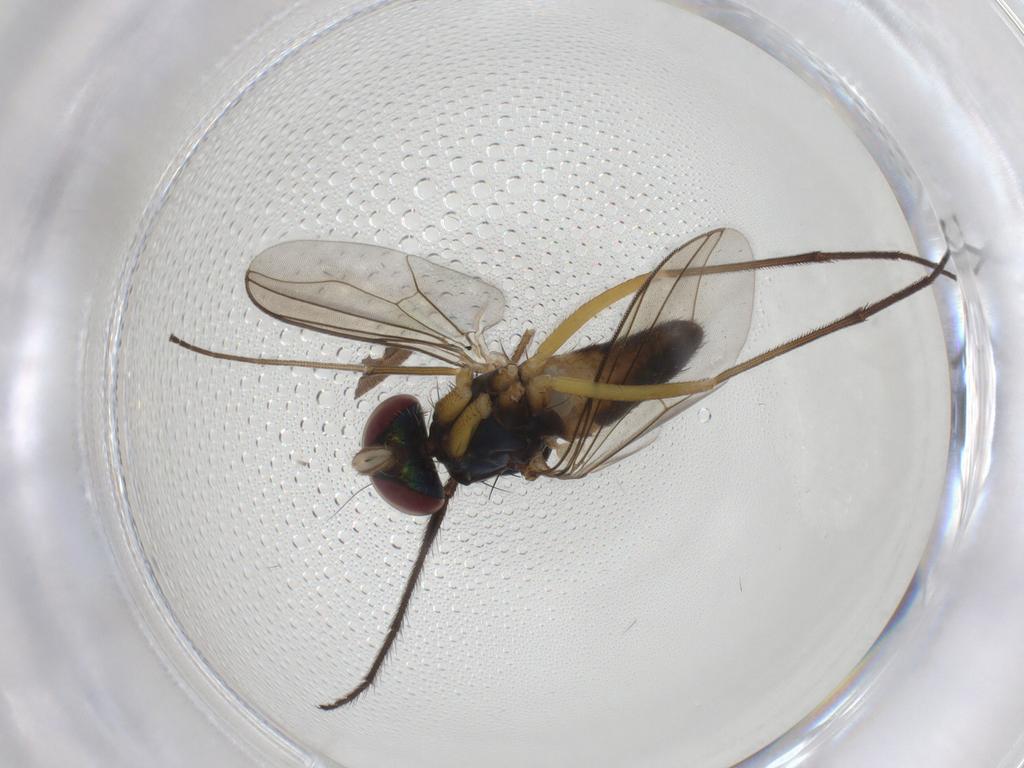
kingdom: Animalia
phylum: Arthropoda
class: Insecta
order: Diptera
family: Dolichopodidae
